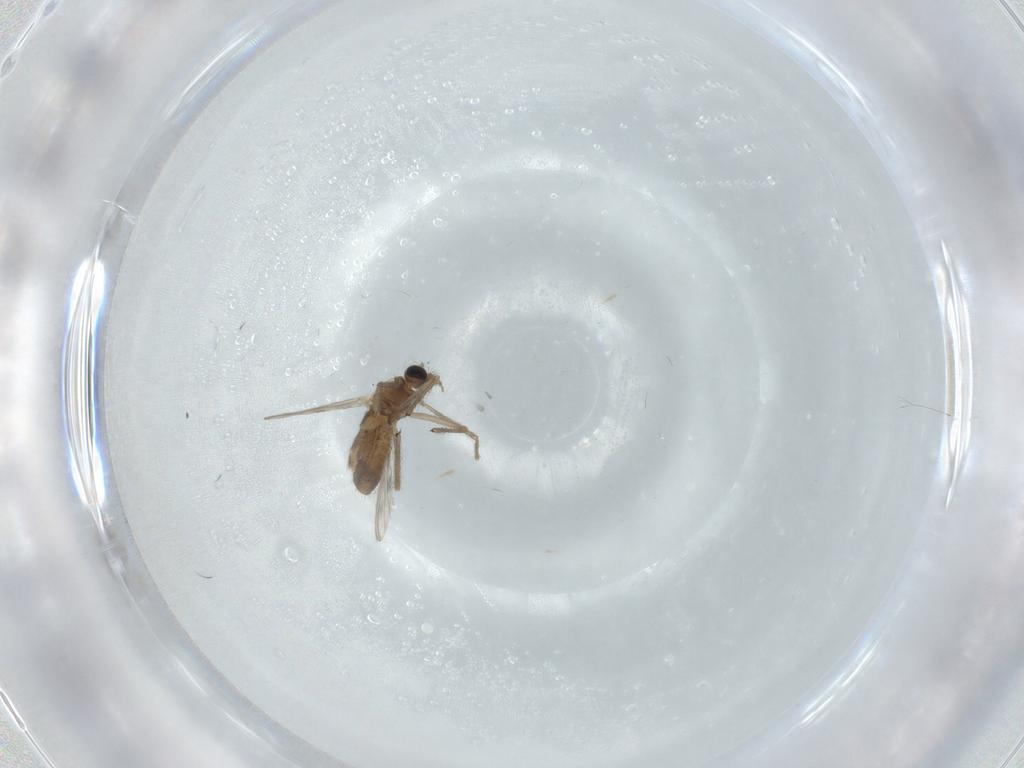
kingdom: Animalia
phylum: Arthropoda
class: Insecta
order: Diptera
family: Chironomidae
